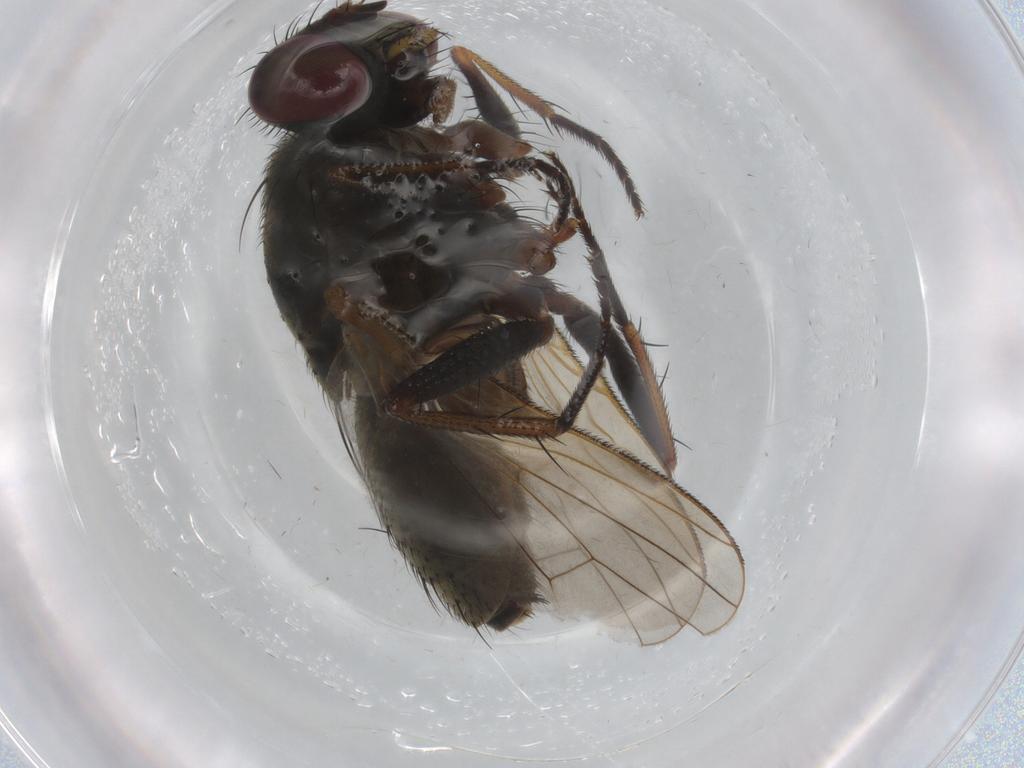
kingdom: Animalia
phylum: Arthropoda
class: Insecta
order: Diptera
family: Muscidae
